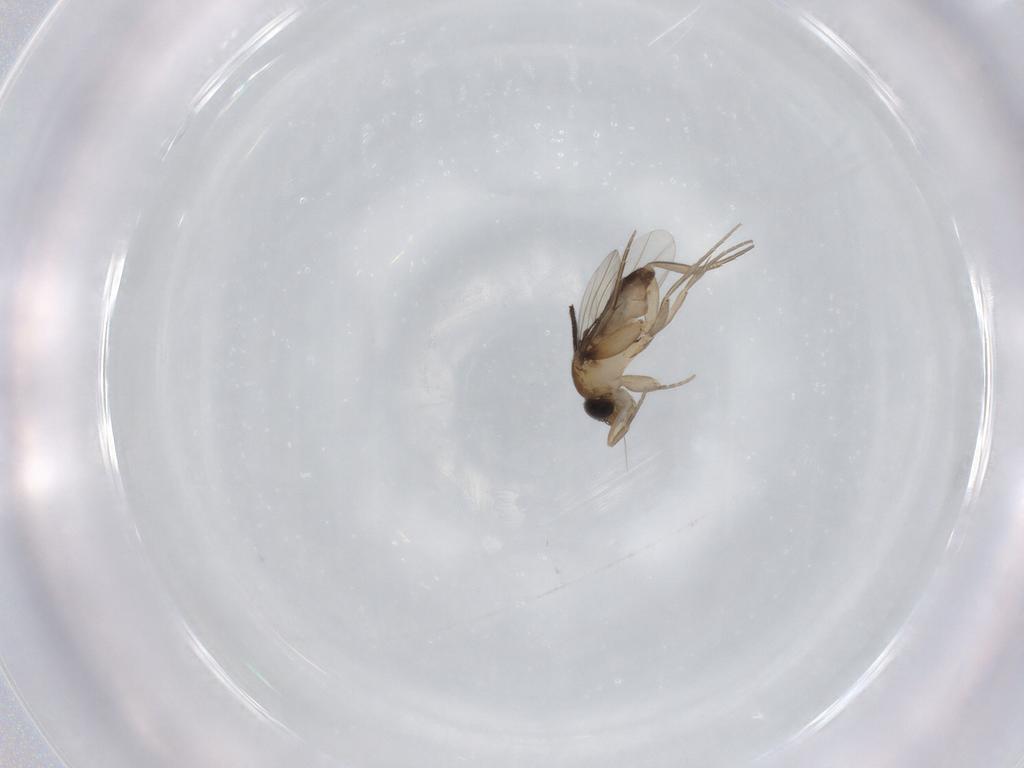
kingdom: Animalia
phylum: Arthropoda
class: Insecta
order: Diptera
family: Phoridae
